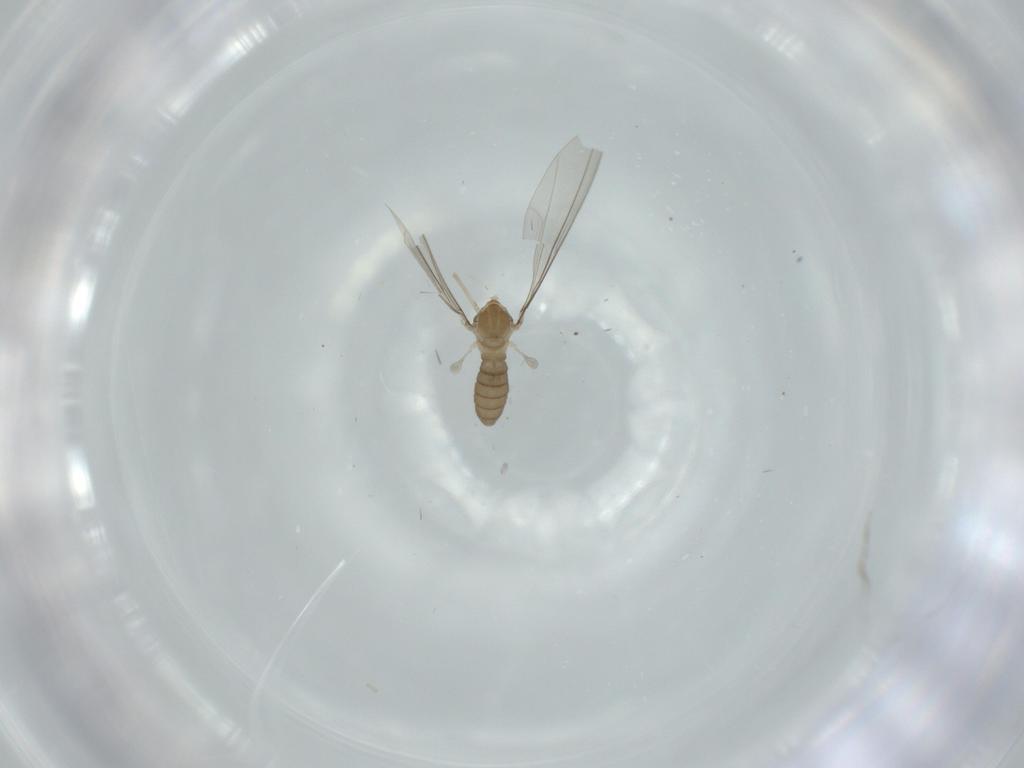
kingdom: Animalia
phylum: Arthropoda
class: Insecta
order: Diptera
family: Cecidomyiidae
